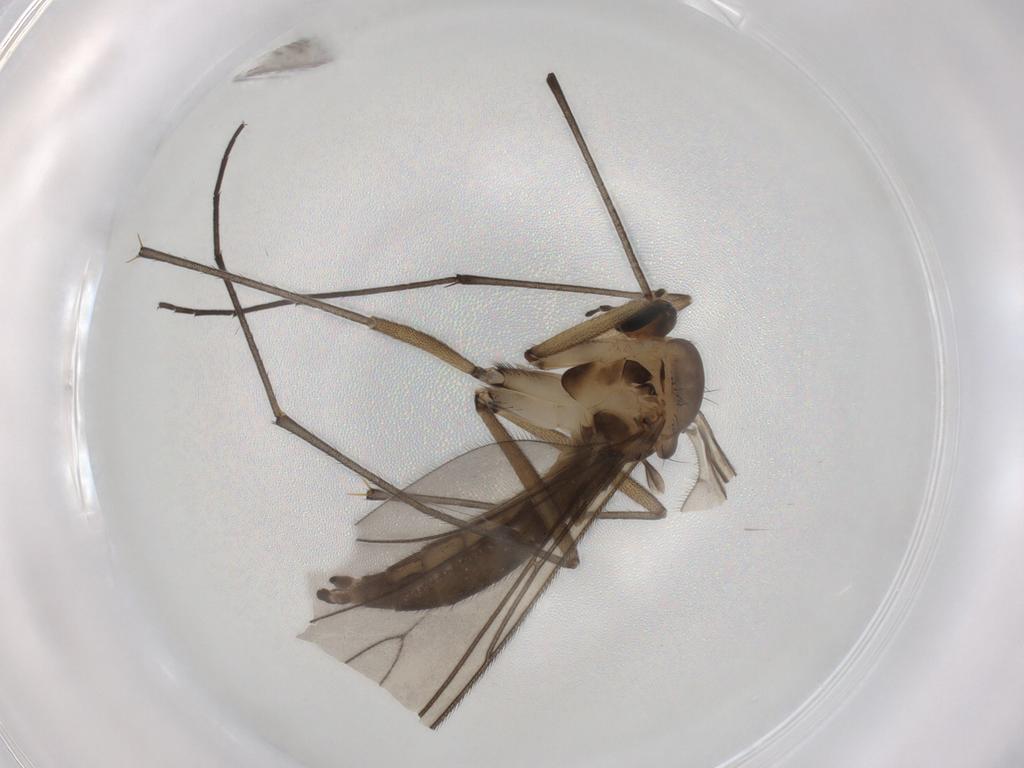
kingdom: Animalia
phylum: Arthropoda
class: Insecta
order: Diptera
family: Sciaridae
